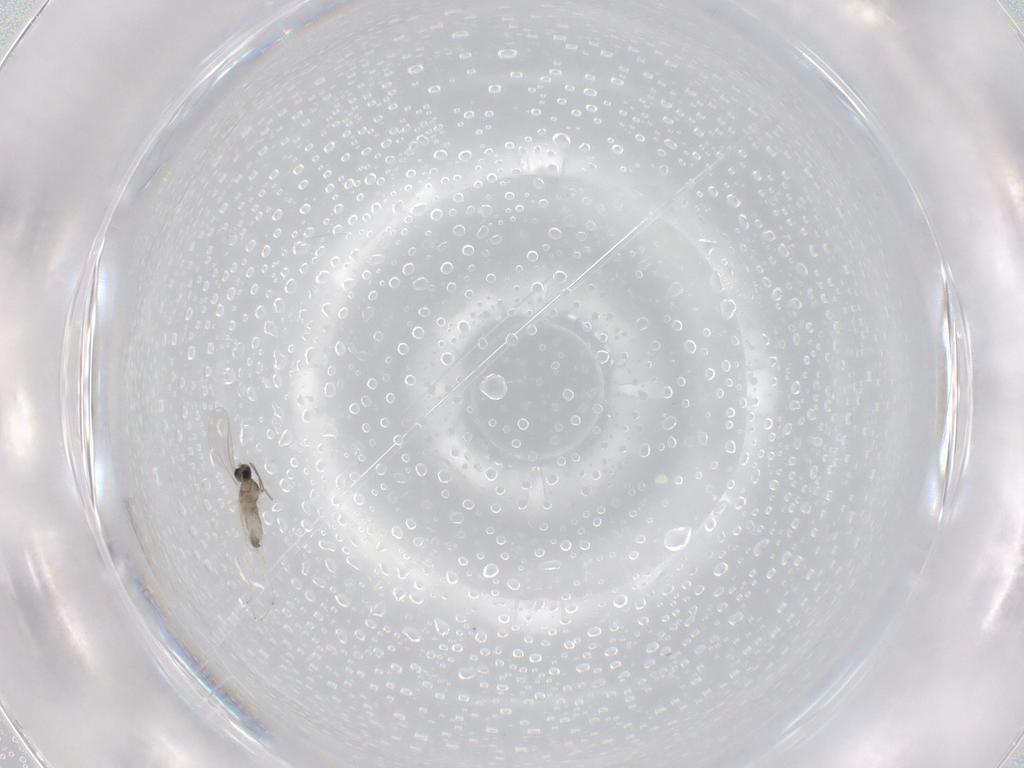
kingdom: Animalia
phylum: Arthropoda
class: Insecta
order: Diptera
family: Cecidomyiidae
